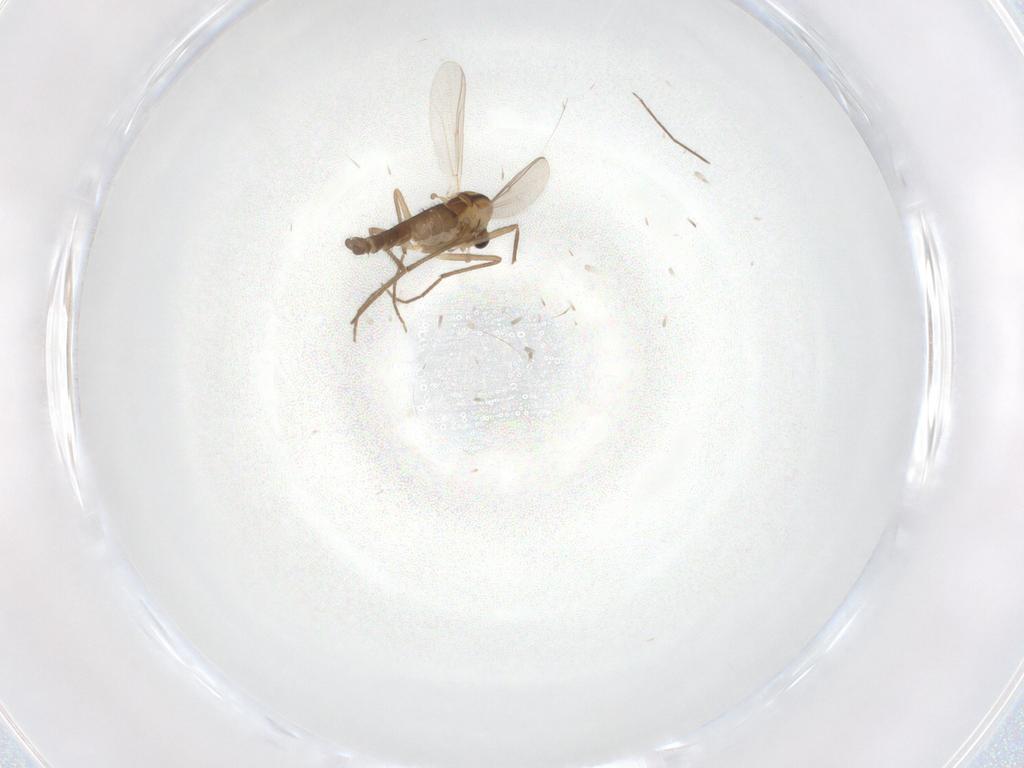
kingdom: Animalia
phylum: Arthropoda
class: Insecta
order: Diptera
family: Chironomidae
